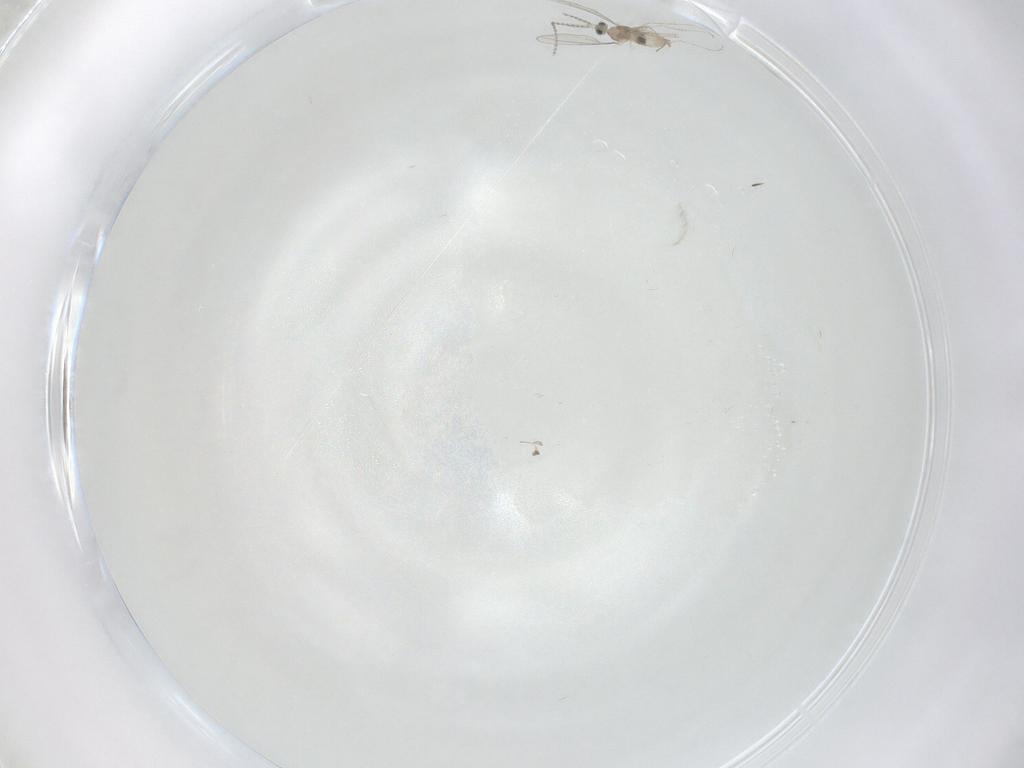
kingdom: Animalia
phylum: Arthropoda
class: Insecta
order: Diptera
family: Cecidomyiidae
